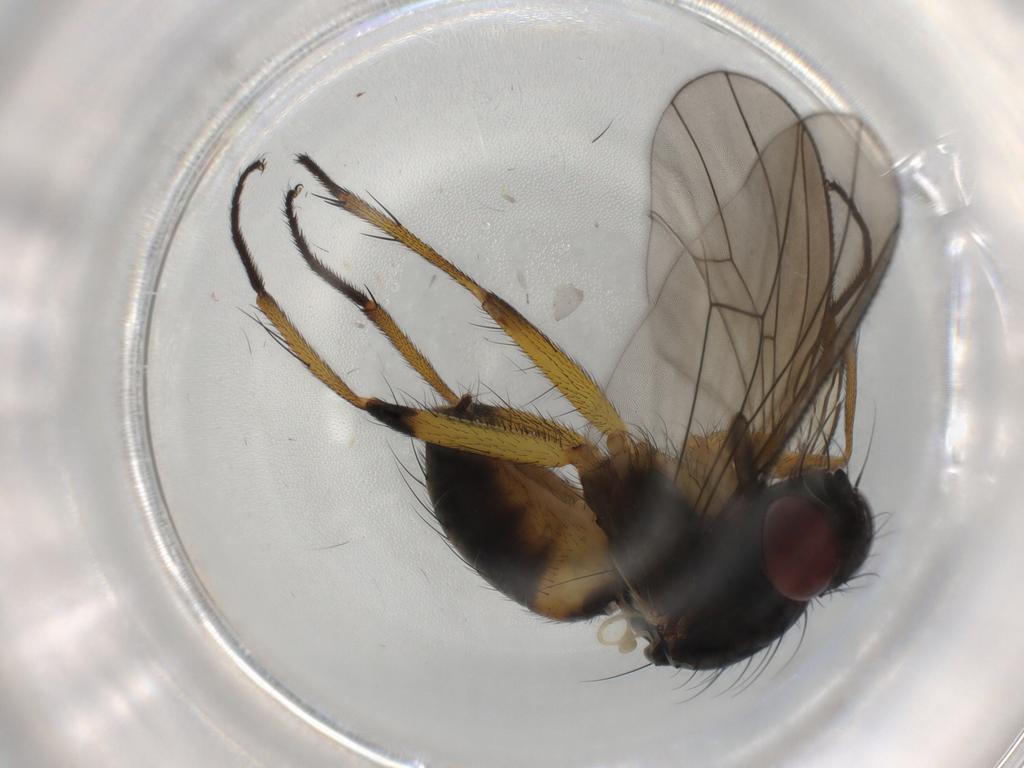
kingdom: Animalia
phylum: Arthropoda
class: Insecta
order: Diptera
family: Muscidae
